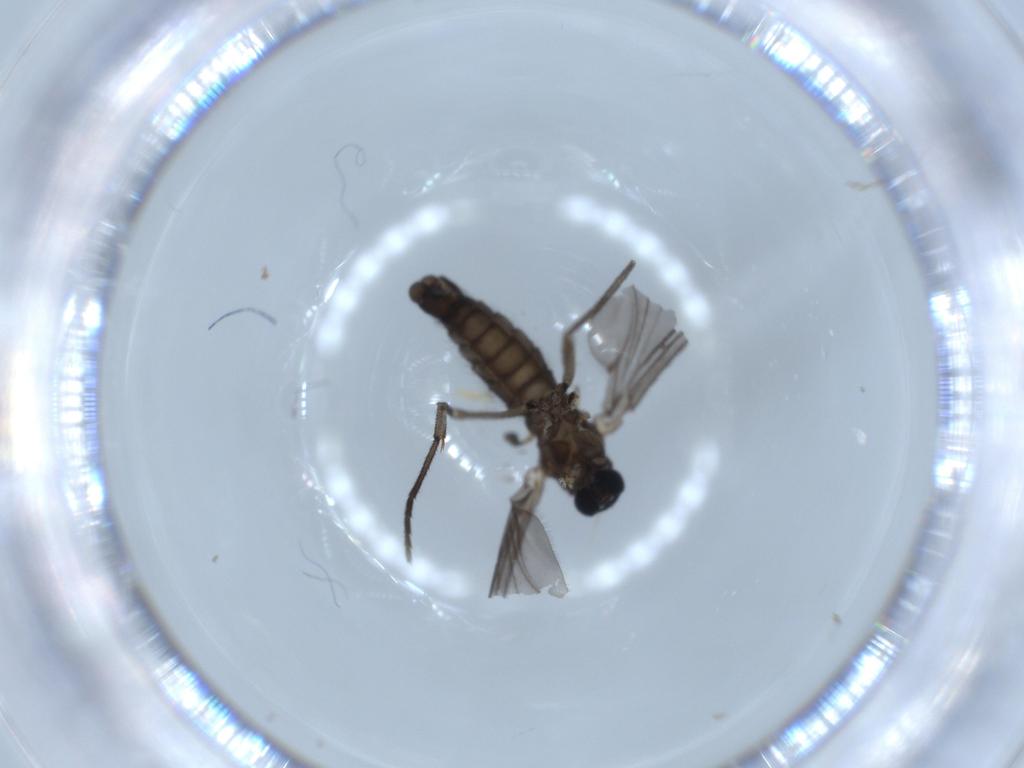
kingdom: Animalia
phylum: Arthropoda
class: Insecta
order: Diptera
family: Sciaridae
